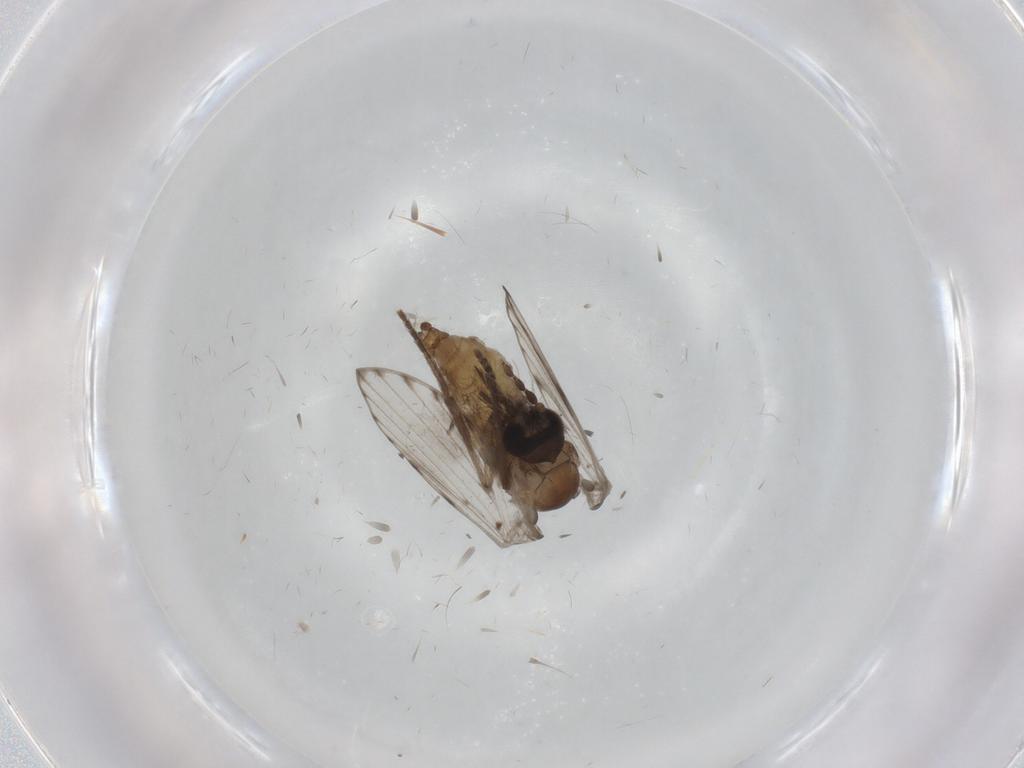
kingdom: Animalia
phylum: Arthropoda
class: Insecta
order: Diptera
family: Psychodidae
